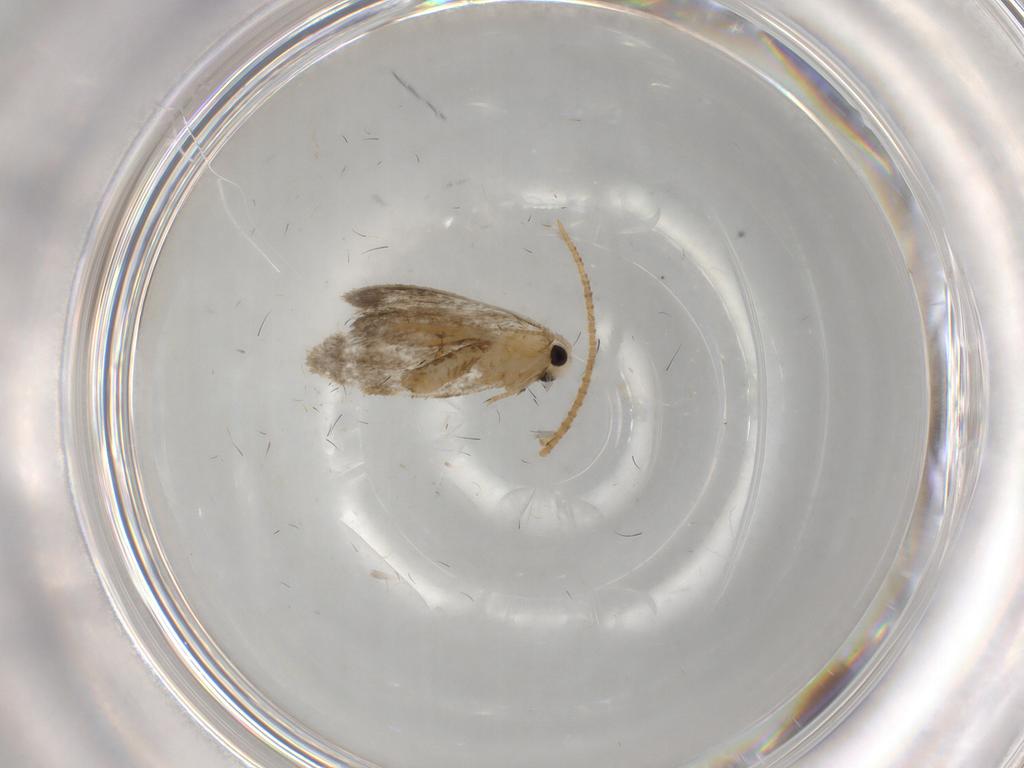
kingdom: Animalia
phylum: Arthropoda
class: Insecta
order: Lepidoptera
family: Psychidae
